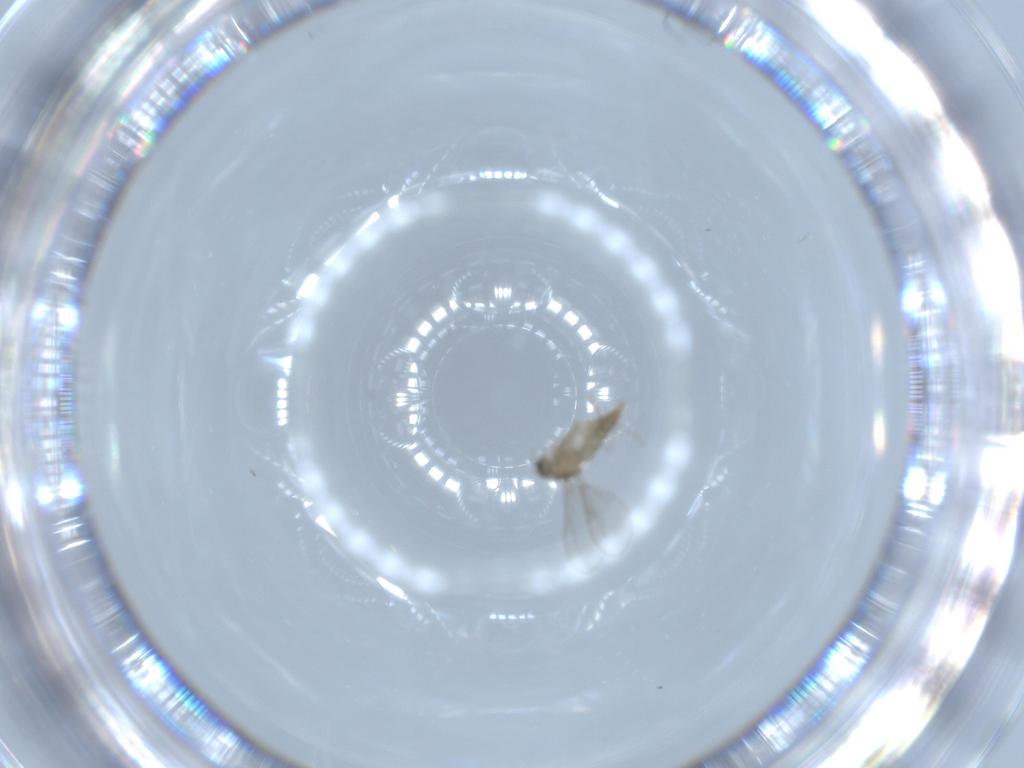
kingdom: Animalia
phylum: Arthropoda
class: Insecta
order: Diptera
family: Cecidomyiidae
